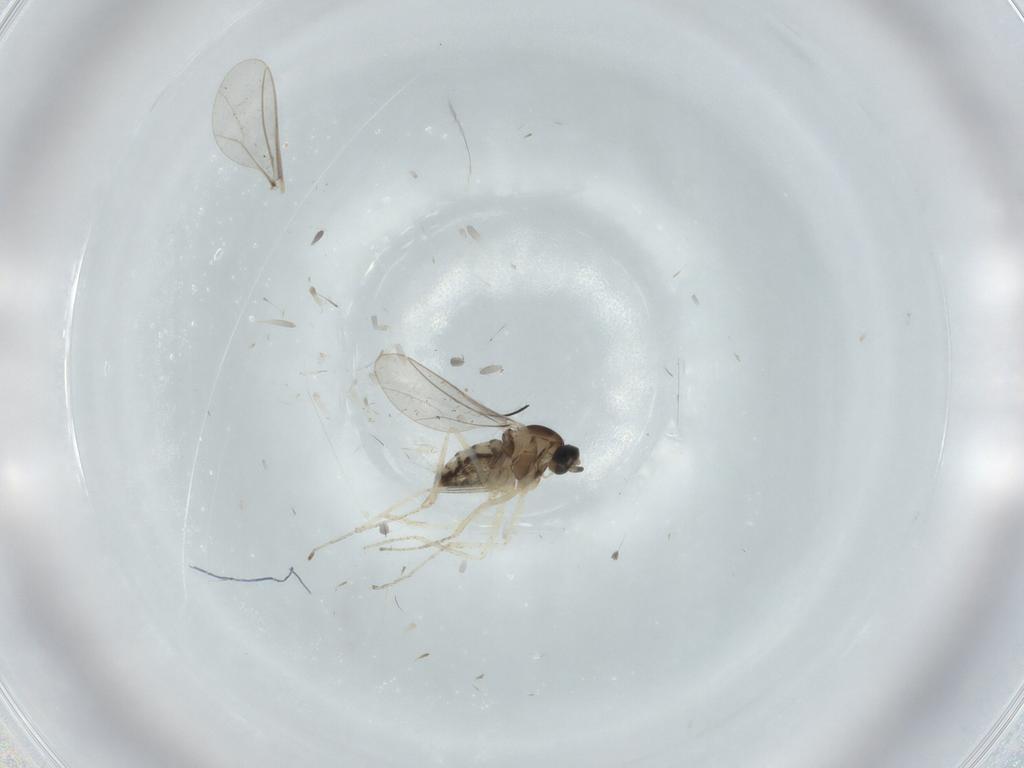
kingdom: Animalia
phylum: Arthropoda
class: Insecta
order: Diptera
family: Cecidomyiidae
